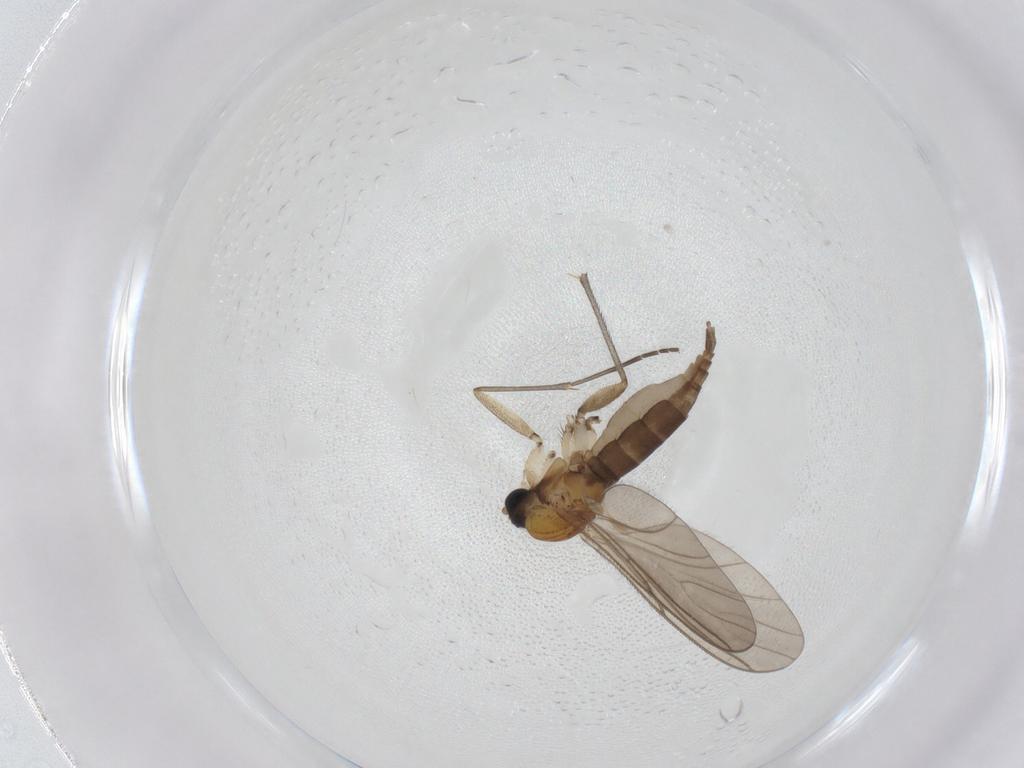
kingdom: Animalia
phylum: Arthropoda
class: Insecta
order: Diptera
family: Sciaridae
